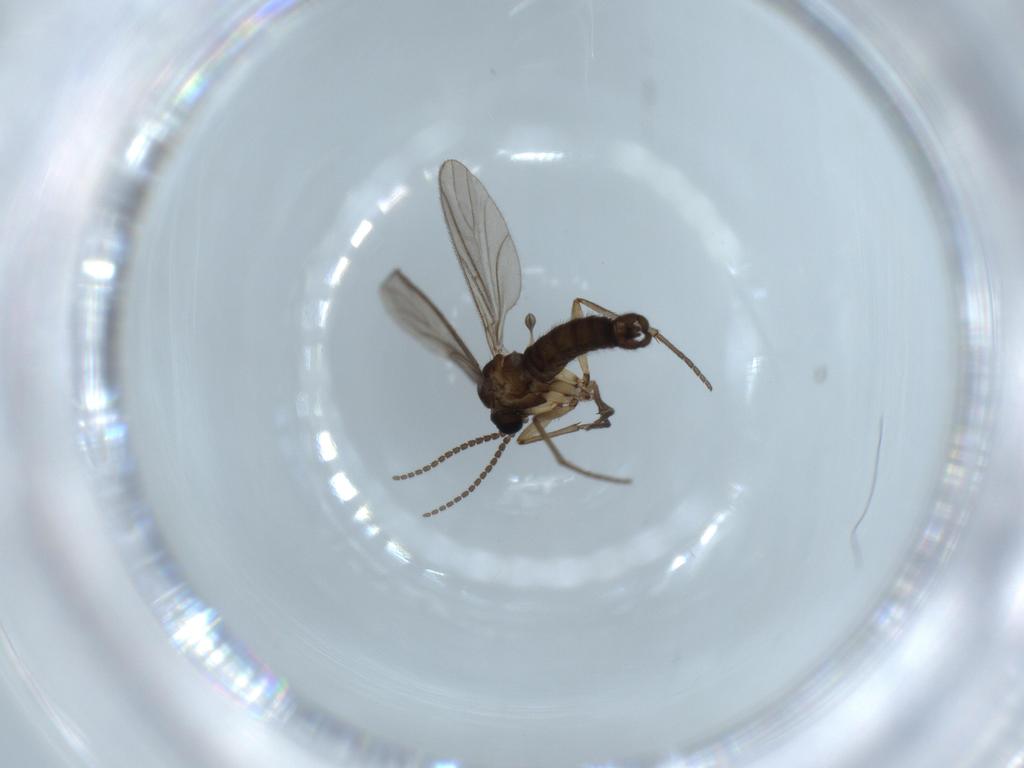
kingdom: Animalia
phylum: Arthropoda
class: Insecta
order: Diptera
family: Sciaridae
